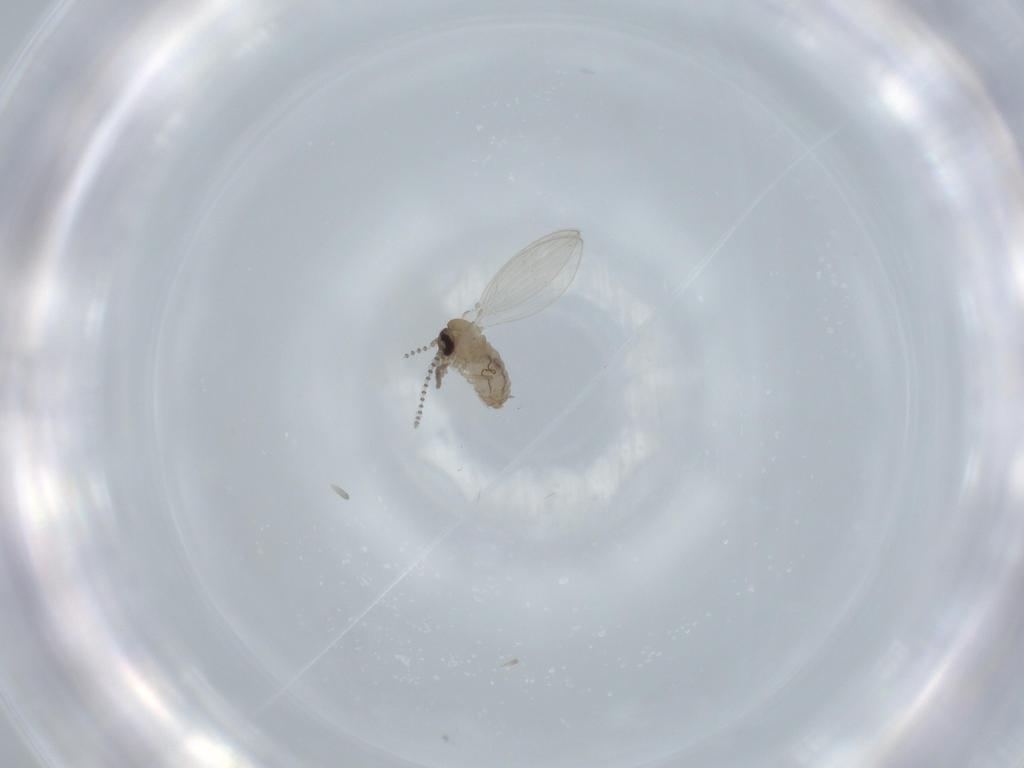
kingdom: Animalia
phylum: Arthropoda
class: Insecta
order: Diptera
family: Psychodidae
